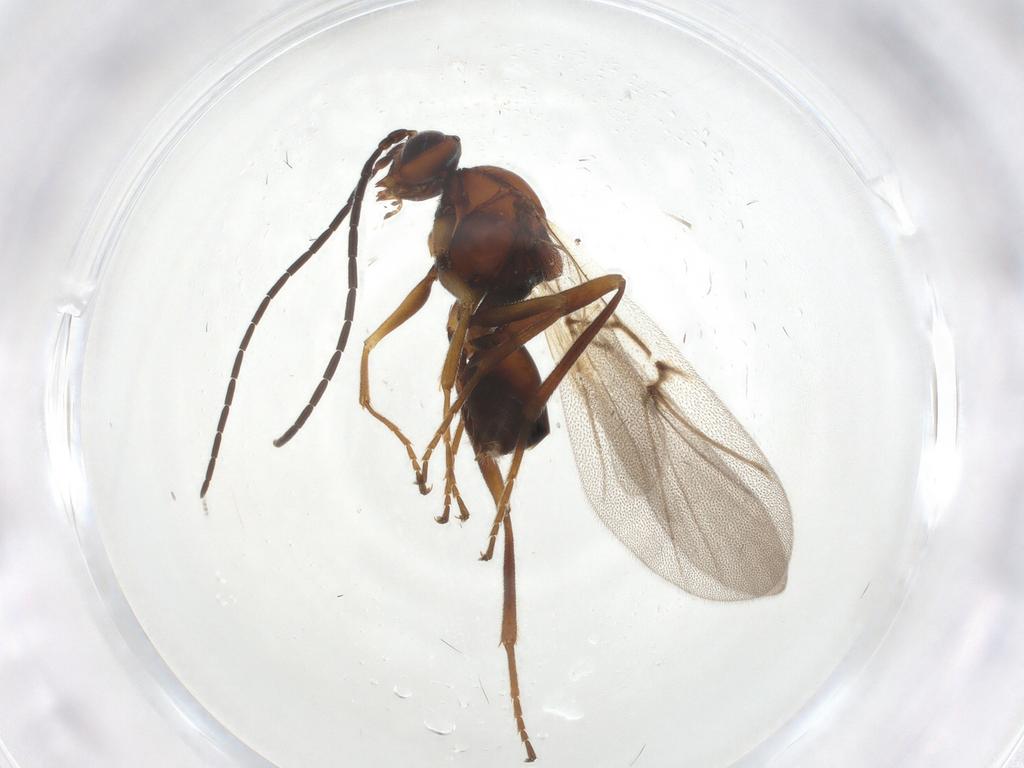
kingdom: Animalia
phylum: Arthropoda
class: Insecta
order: Hymenoptera
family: Cynipidae
